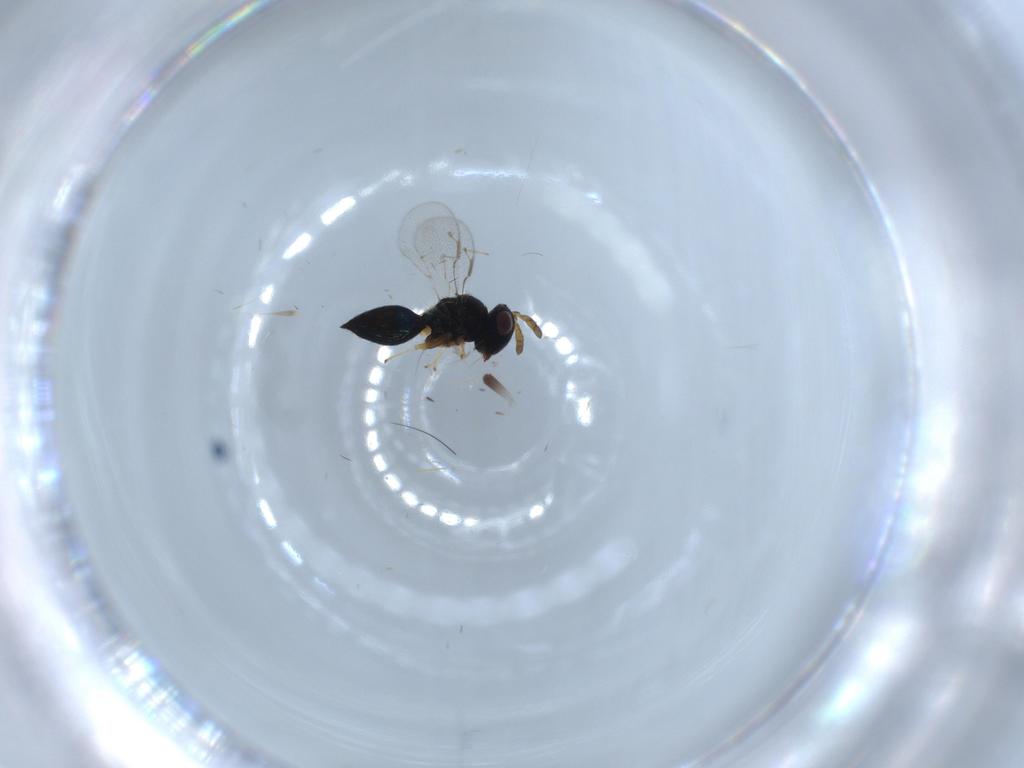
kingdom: Animalia
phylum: Arthropoda
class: Insecta
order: Hymenoptera
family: Pteromalidae
